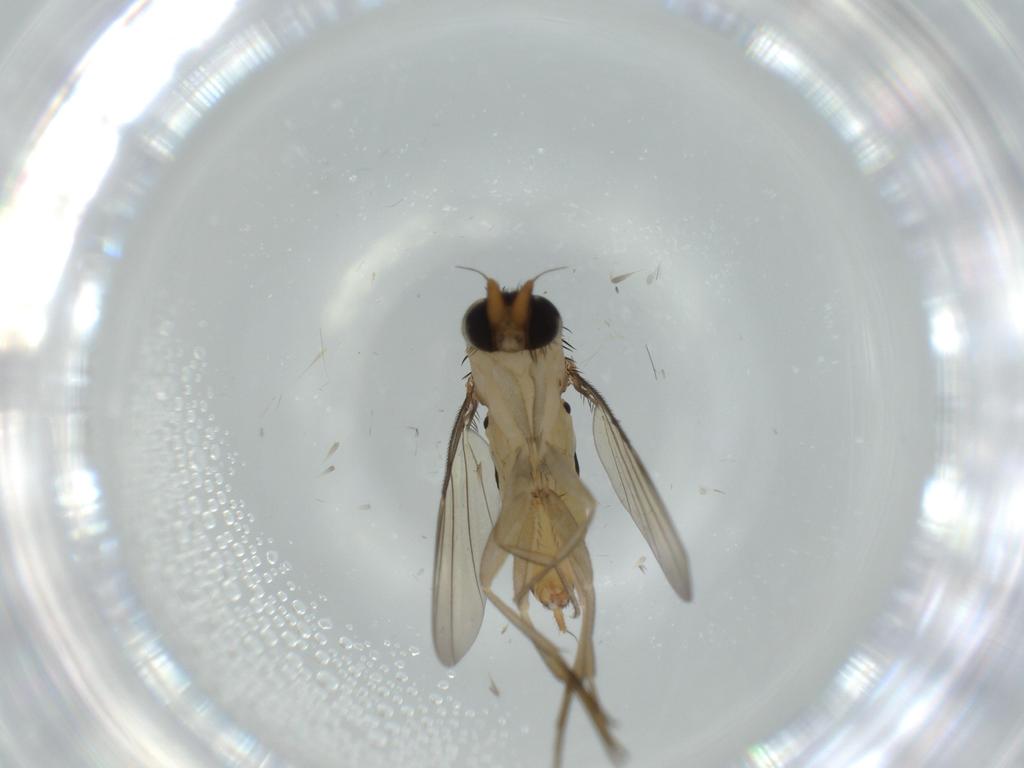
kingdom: Animalia
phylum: Arthropoda
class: Insecta
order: Diptera
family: Phoridae
